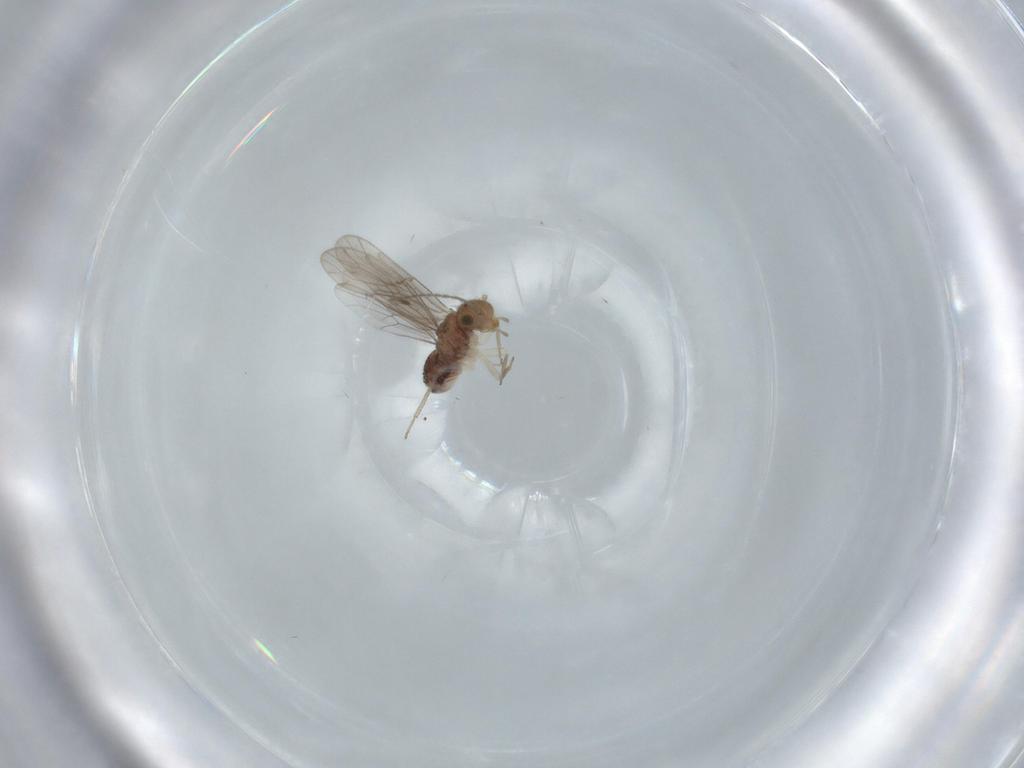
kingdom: Animalia
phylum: Arthropoda
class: Insecta
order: Psocodea
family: Ectopsocidae
